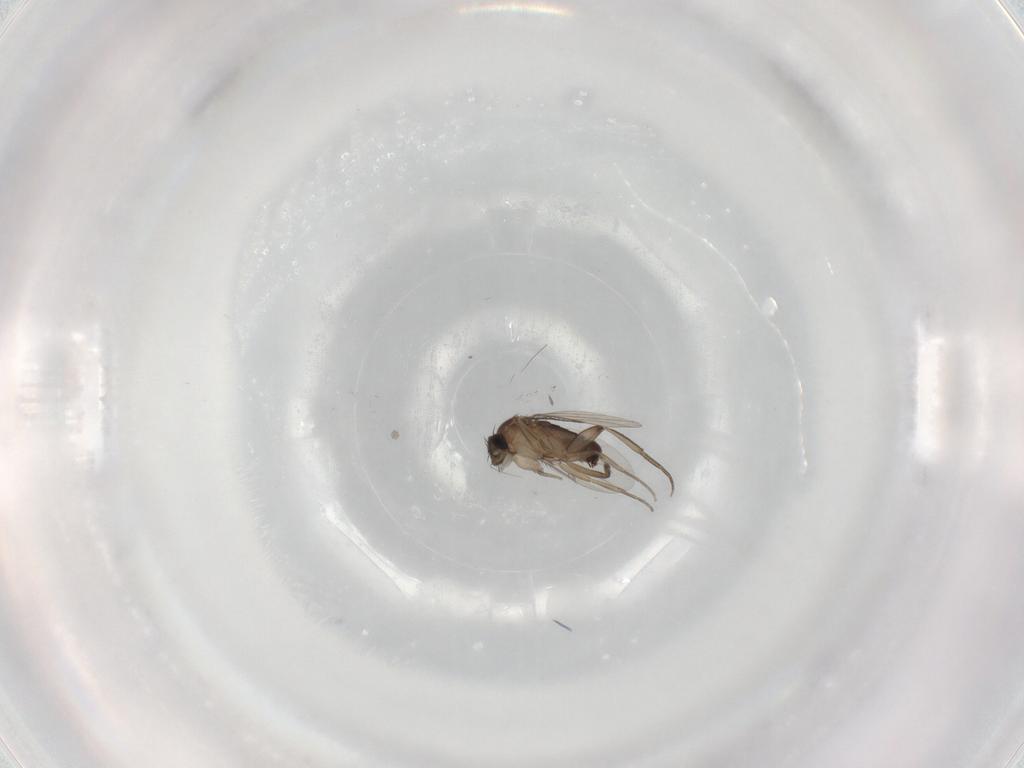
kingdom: Animalia
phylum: Arthropoda
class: Insecta
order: Diptera
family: Phoridae
